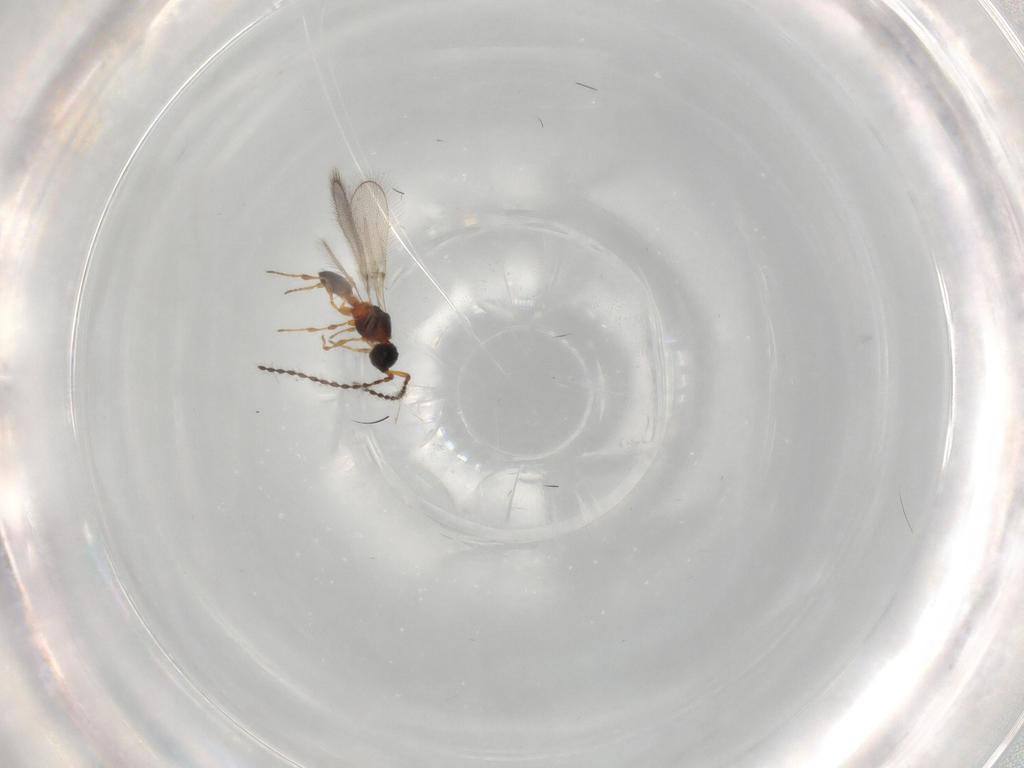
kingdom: Animalia
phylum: Arthropoda
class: Insecta
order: Hymenoptera
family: Diapriidae
